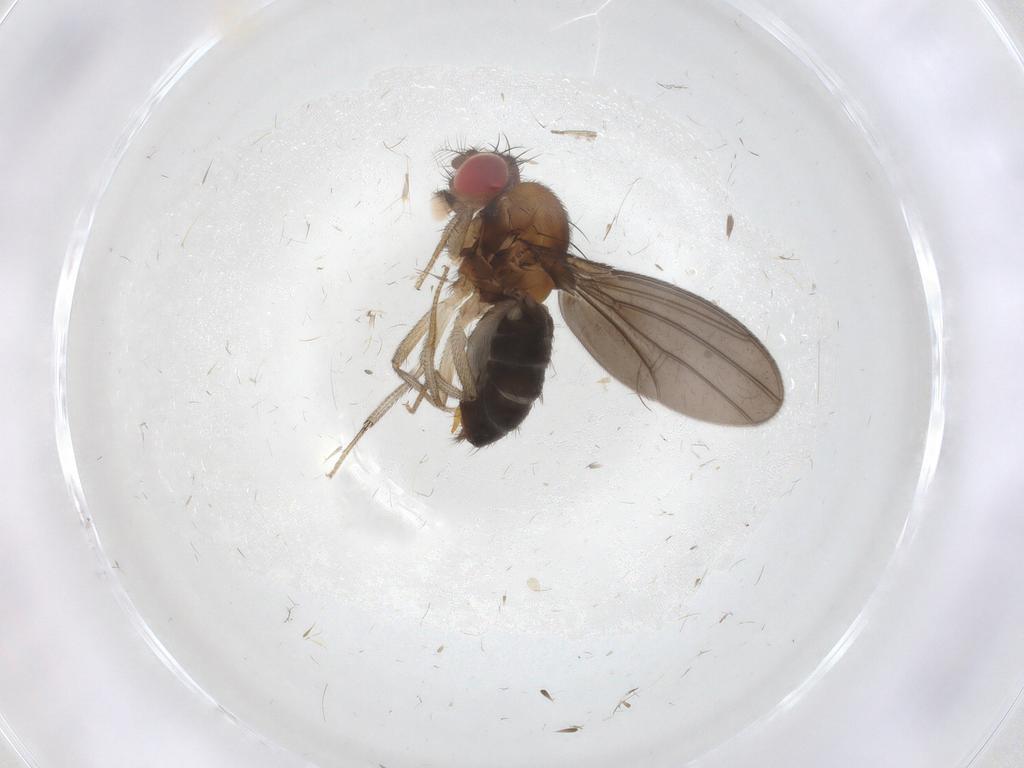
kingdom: Animalia
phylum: Arthropoda
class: Insecta
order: Diptera
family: Drosophilidae
